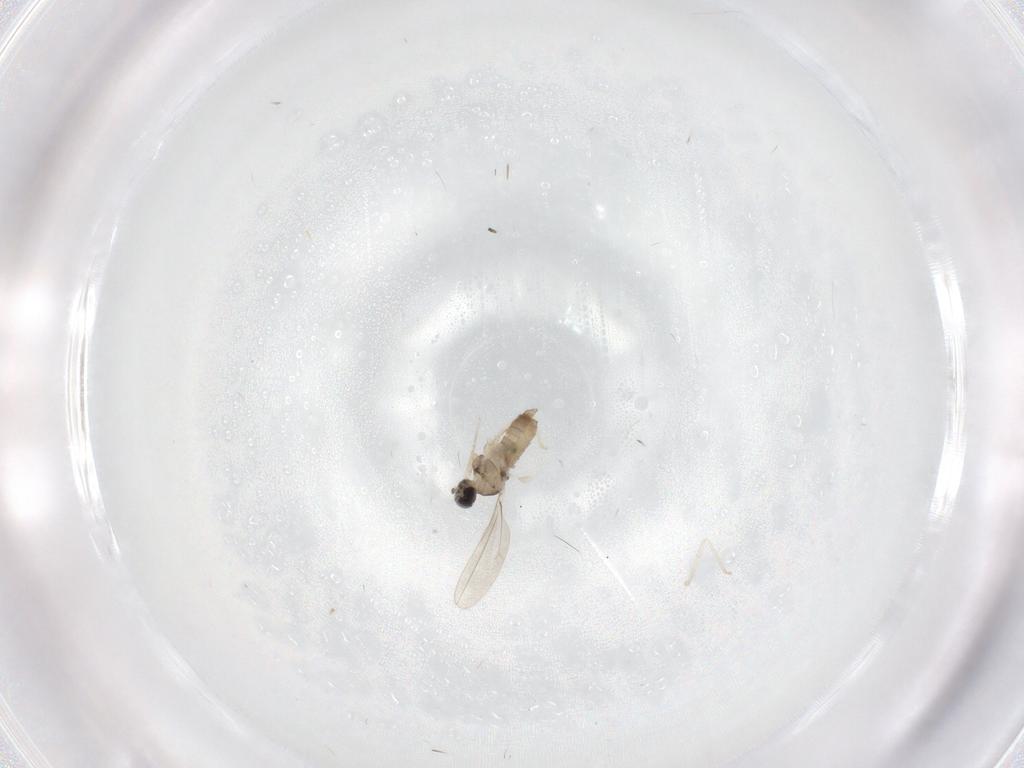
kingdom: Animalia
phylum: Arthropoda
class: Insecta
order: Diptera
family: Cecidomyiidae
